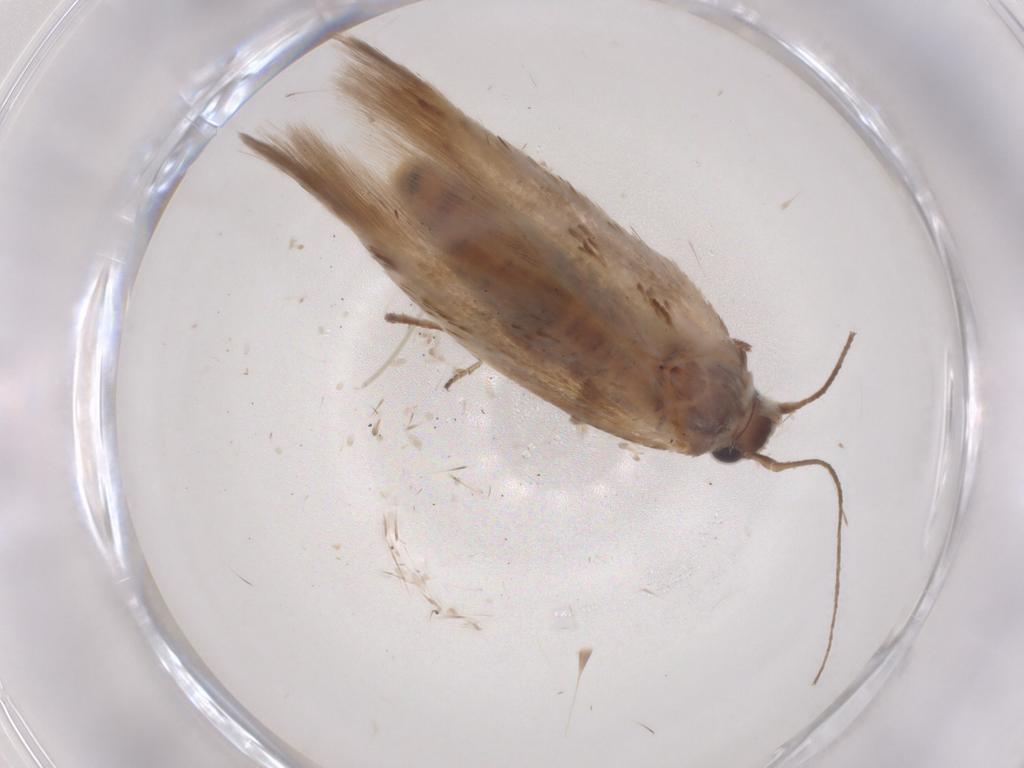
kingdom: Animalia
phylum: Arthropoda
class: Insecta
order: Lepidoptera
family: Scythrididae
